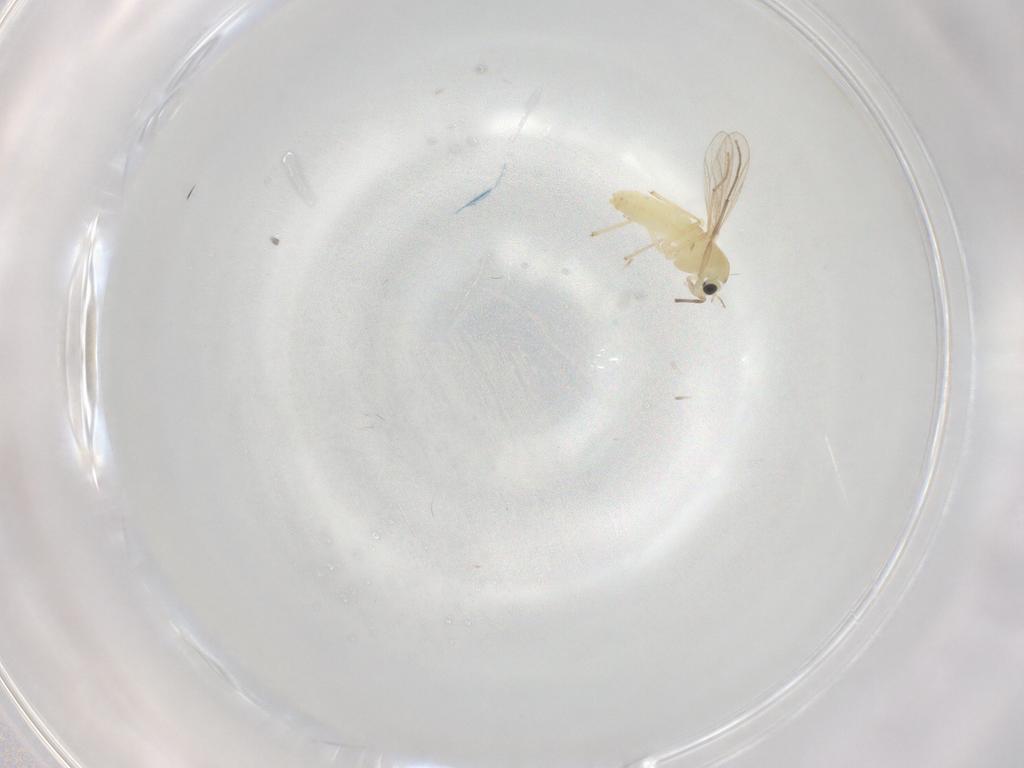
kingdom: Animalia
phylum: Arthropoda
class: Insecta
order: Diptera
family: Chironomidae
